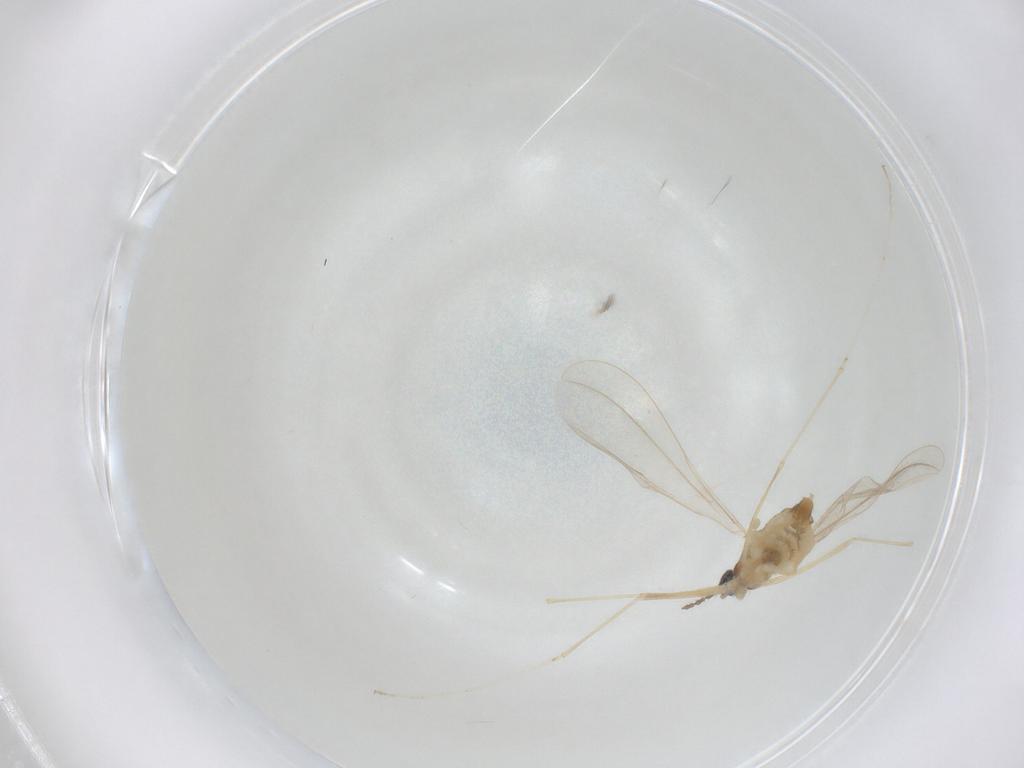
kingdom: Animalia
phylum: Arthropoda
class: Insecta
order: Diptera
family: Cecidomyiidae
